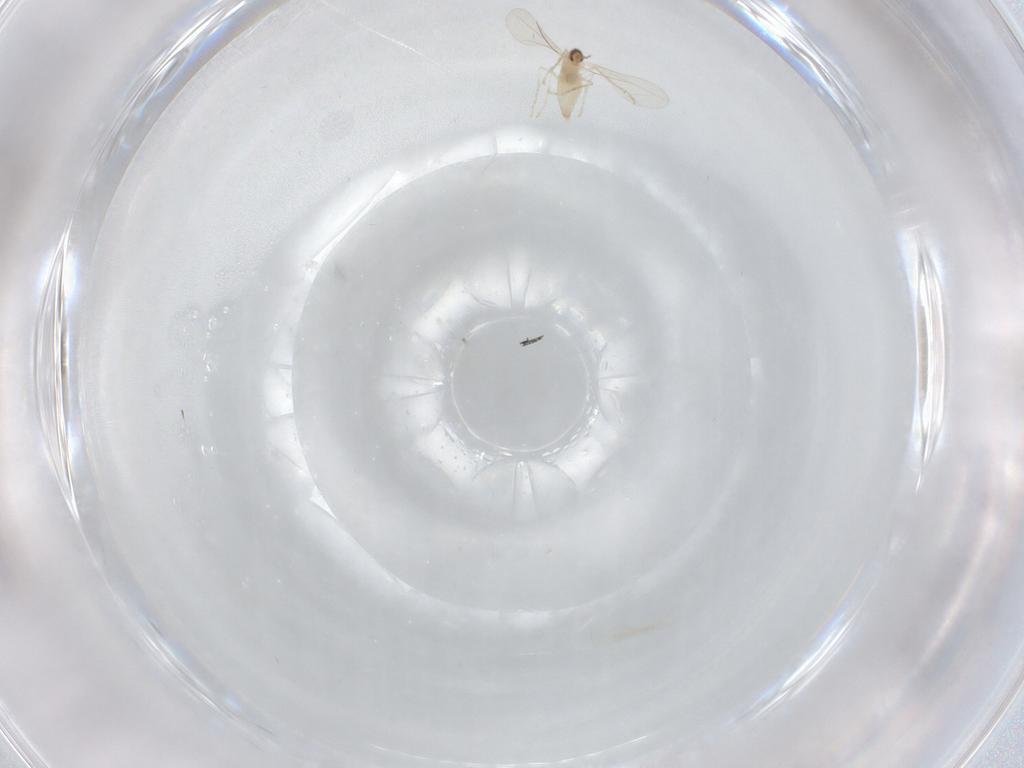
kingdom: Animalia
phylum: Arthropoda
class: Insecta
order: Diptera
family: Cecidomyiidae
